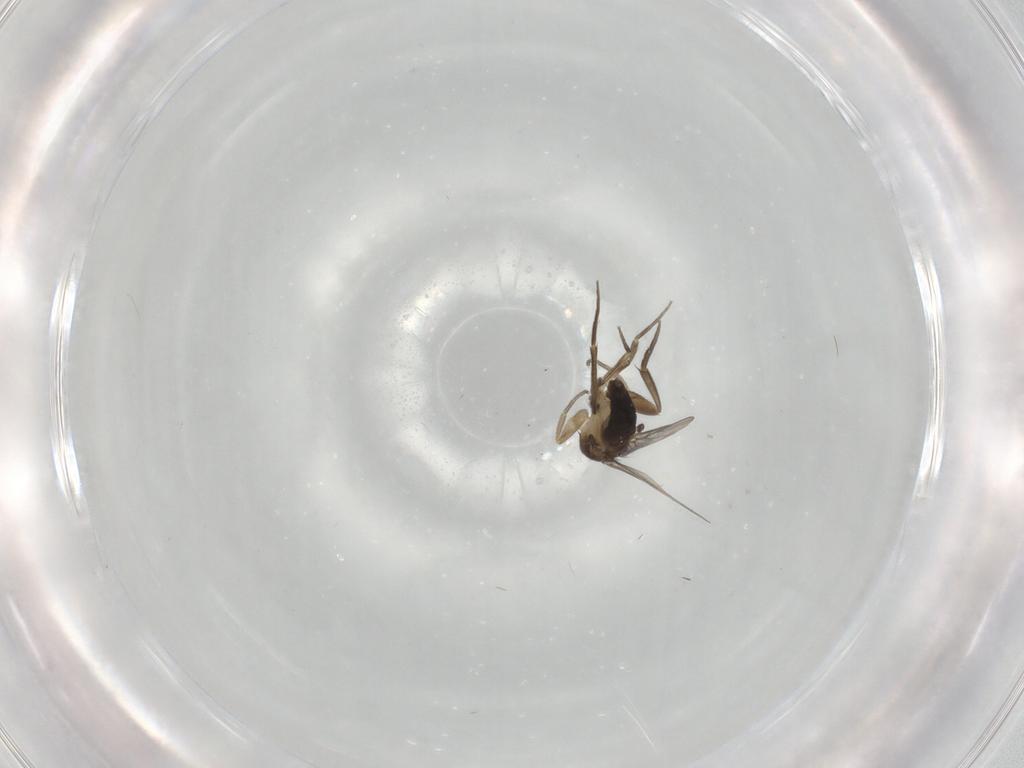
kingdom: Animalia
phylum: Arthropoda
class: Insecta
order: Diptera
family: Phoridae
